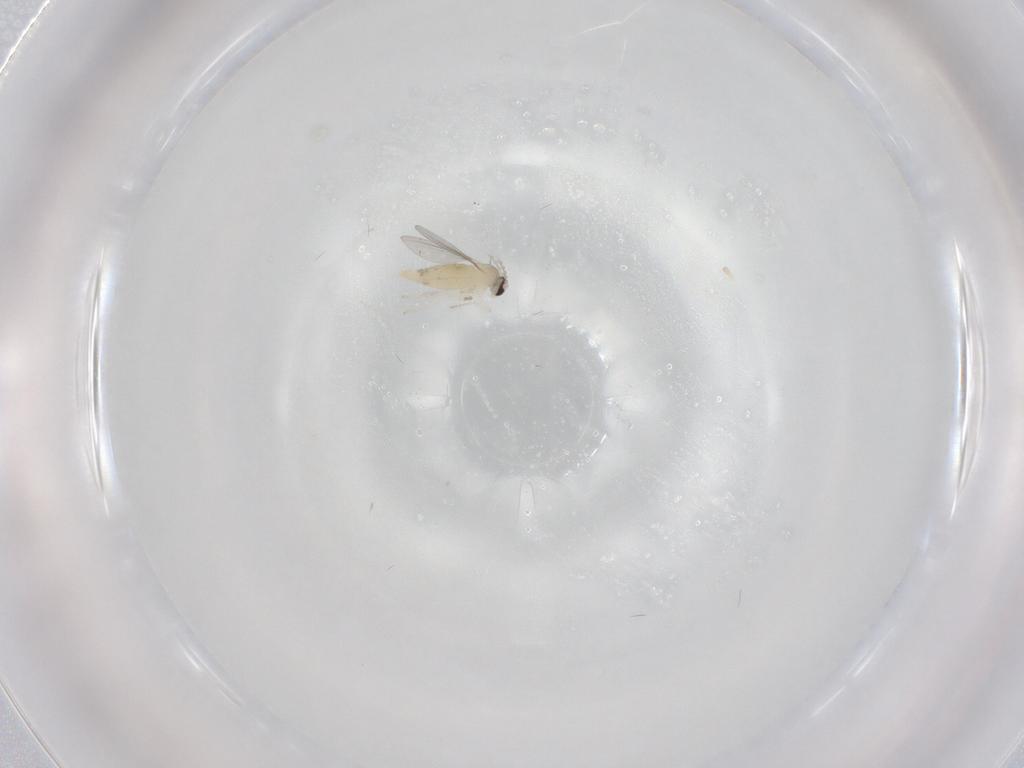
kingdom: Animalia
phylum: Arthropoda
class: Insecta
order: Diptera
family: Cecidomyiidae
